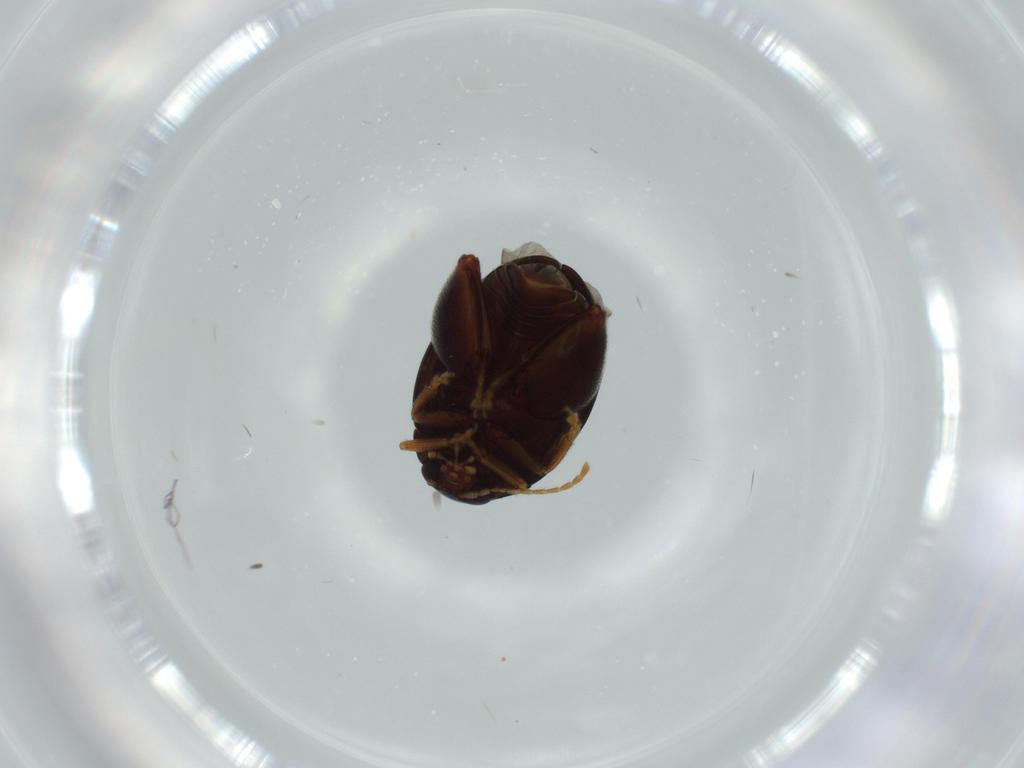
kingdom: Animalia
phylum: Arthropoda
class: Insecta
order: Coleoptera
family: Chrysomelidae
